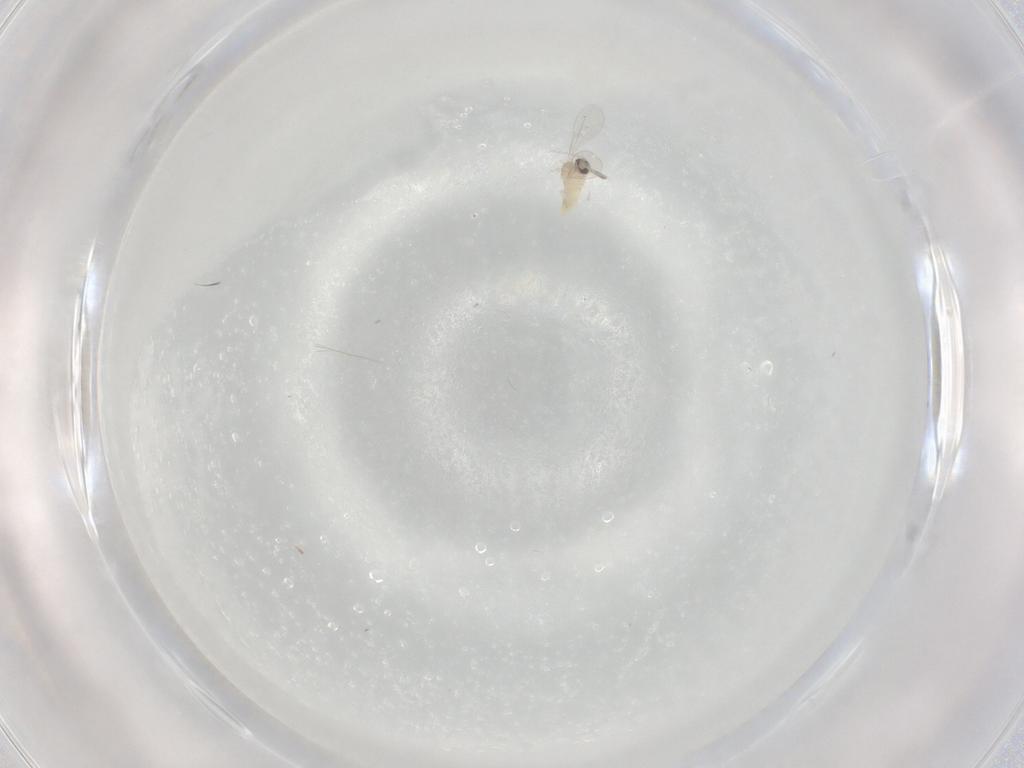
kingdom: Animalia
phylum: Arthropoda
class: Insecta
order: Diptera
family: Cecidomyiidae
